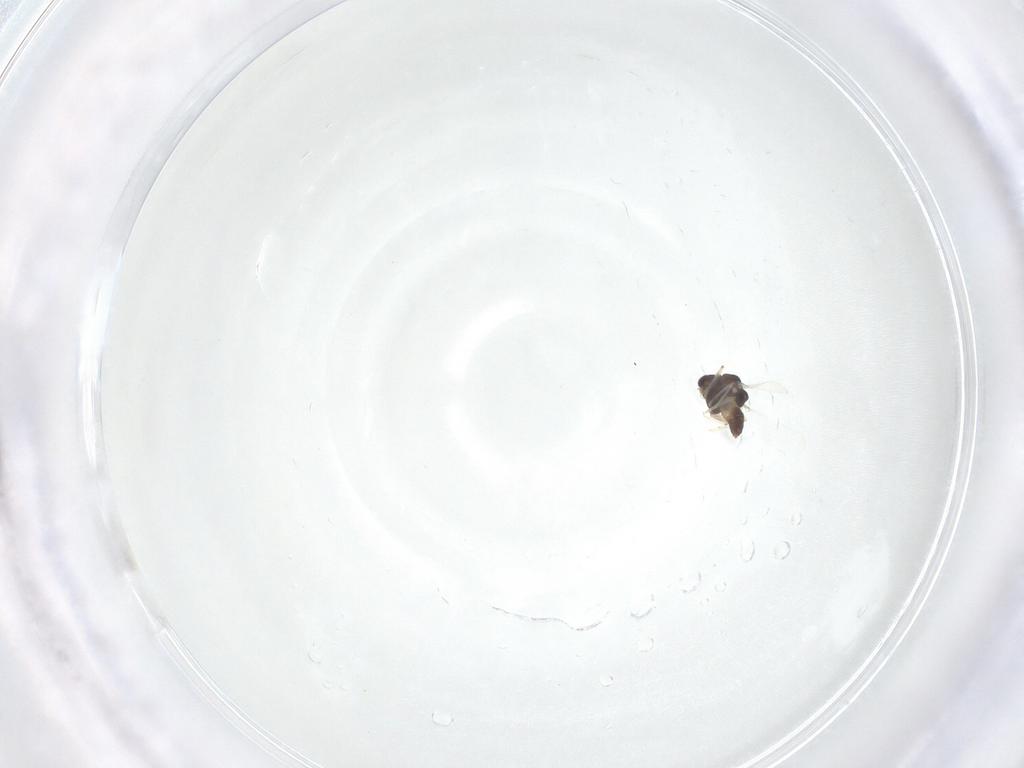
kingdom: Animalia
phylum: Arthropoda
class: Insecta
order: Diptera
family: Chironomidae
